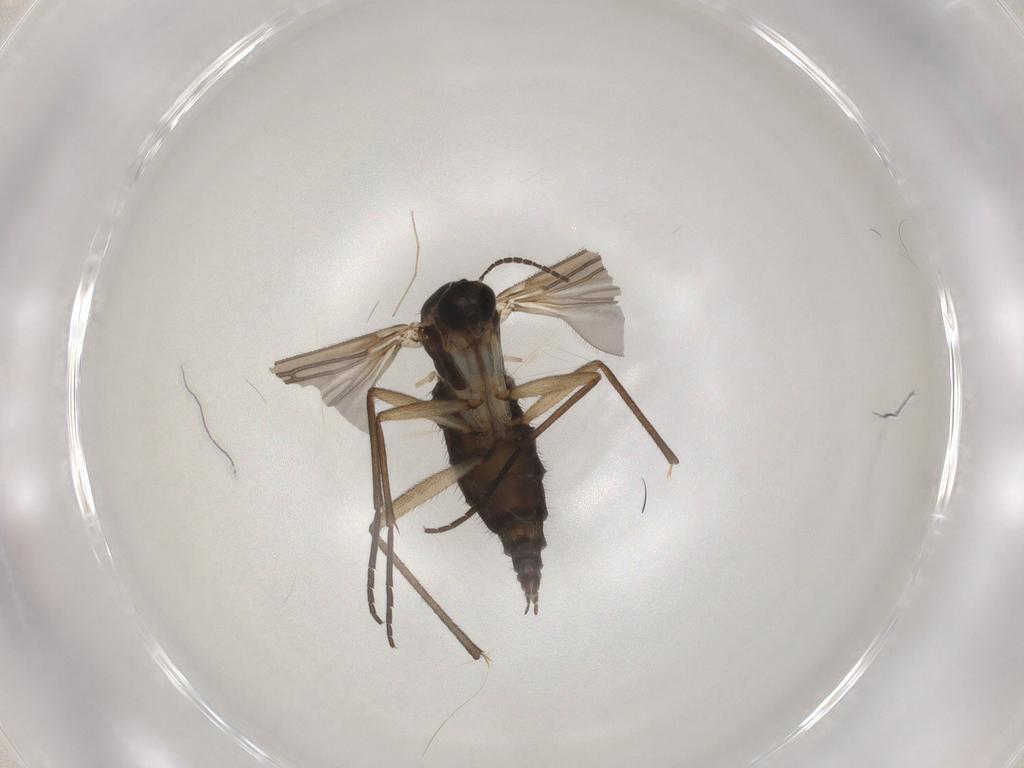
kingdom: Animalia
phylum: Arthropoda
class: Insecta
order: Diptera
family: Sciaridae
